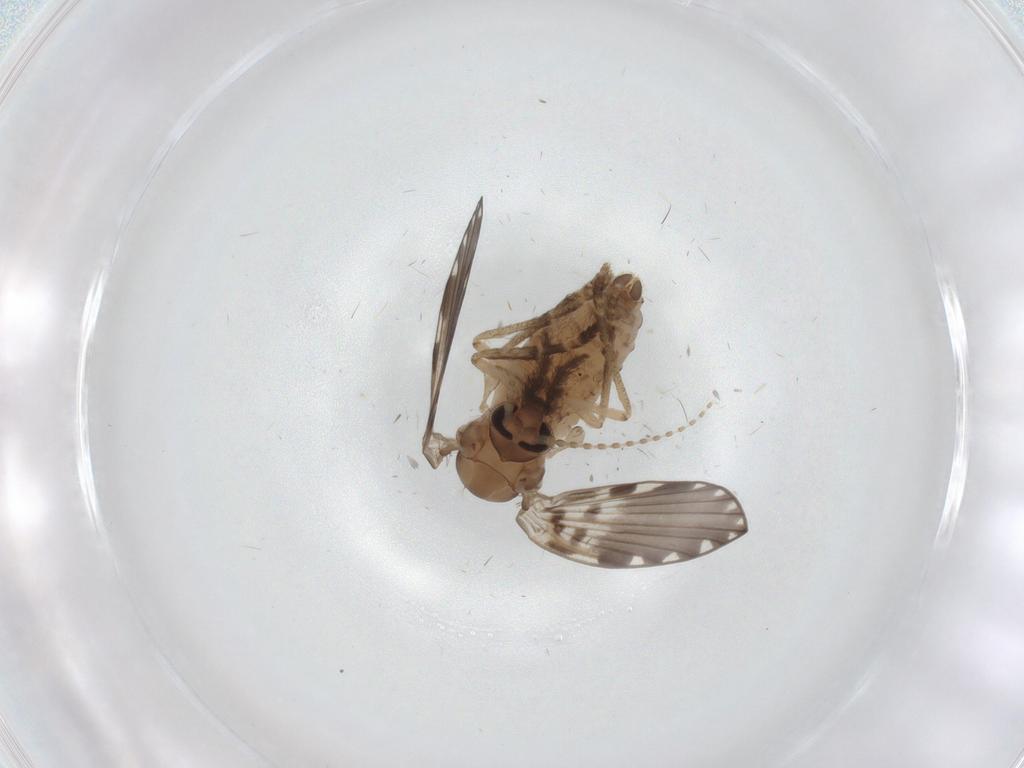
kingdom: Animalia
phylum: Arthropoda
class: Insecta
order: Diptera
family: Psychodidae
